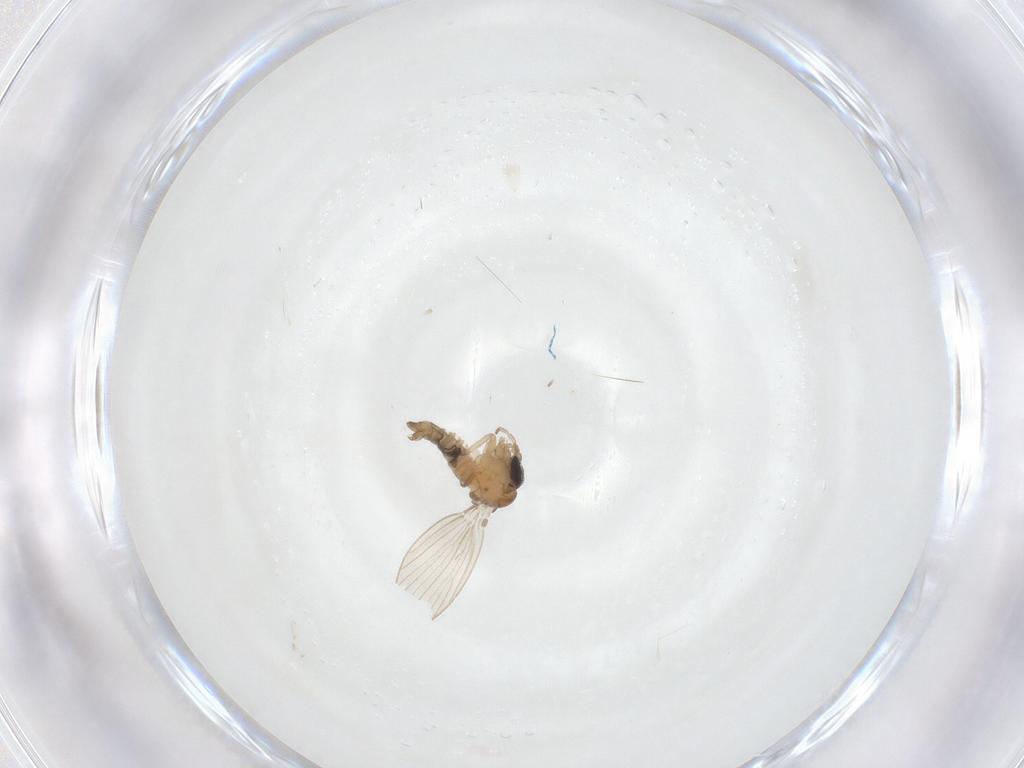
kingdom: Animalia
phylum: Arthropoda
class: Insecta
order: Diptera
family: Psychodidae
